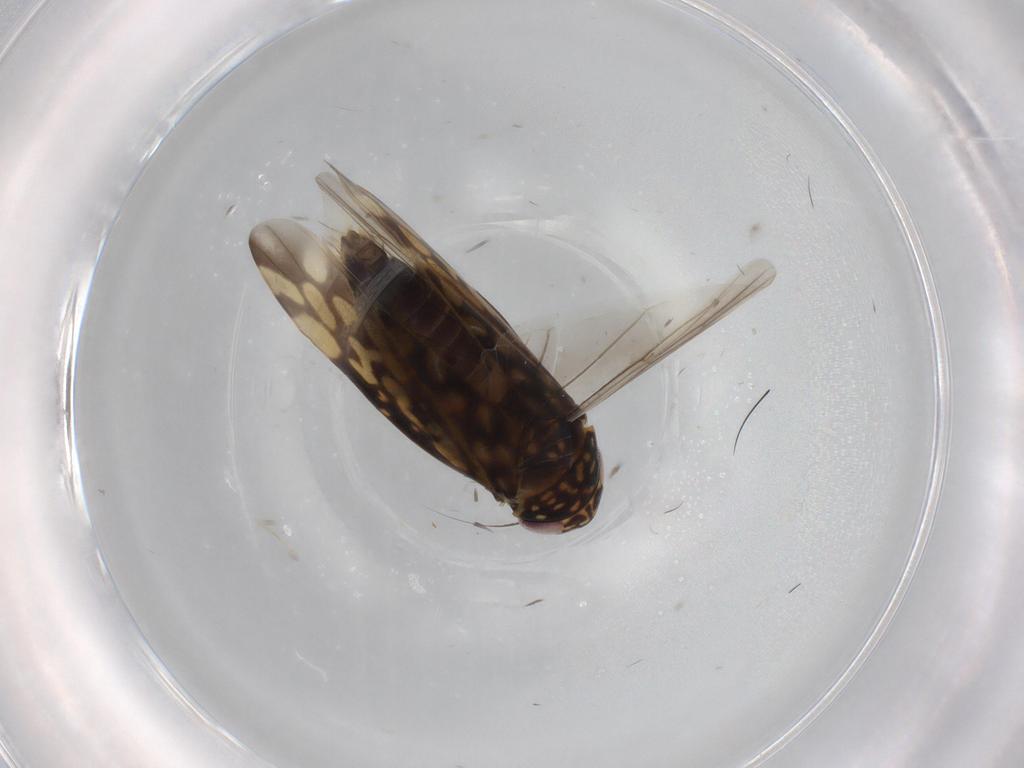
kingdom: Animalia
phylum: Arthropoda
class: Insecta
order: Hemiptera
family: Cicadellidae
